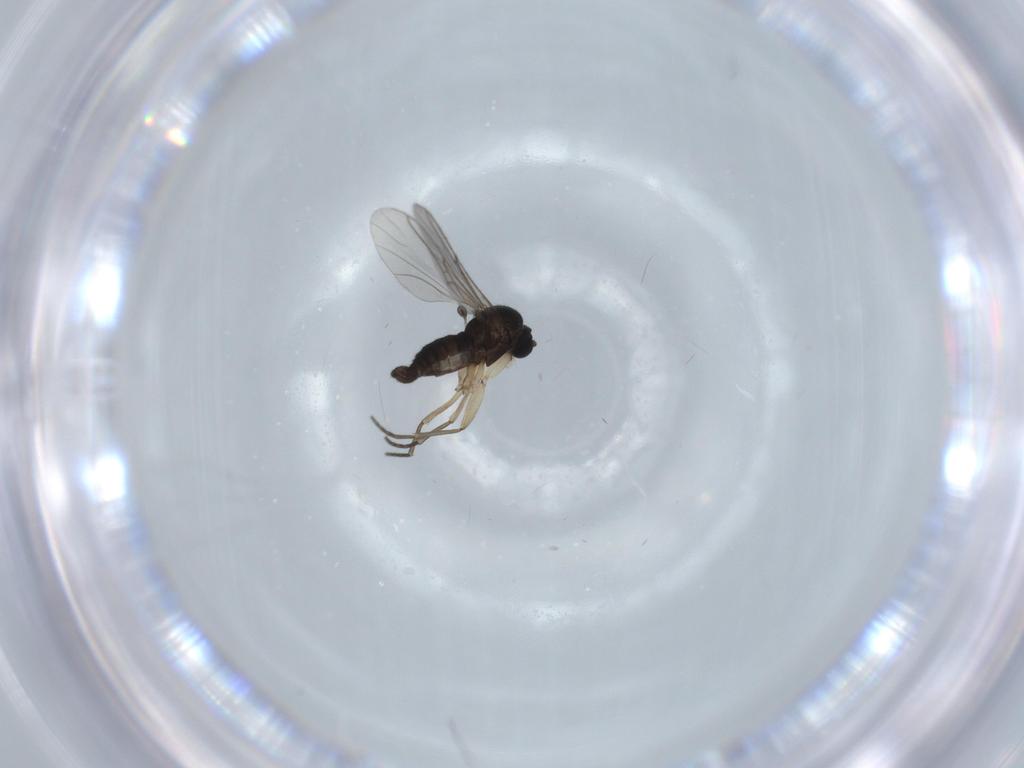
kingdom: Animalia
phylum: Arthropoda
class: Insecta
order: Diptera
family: Sciaridae
